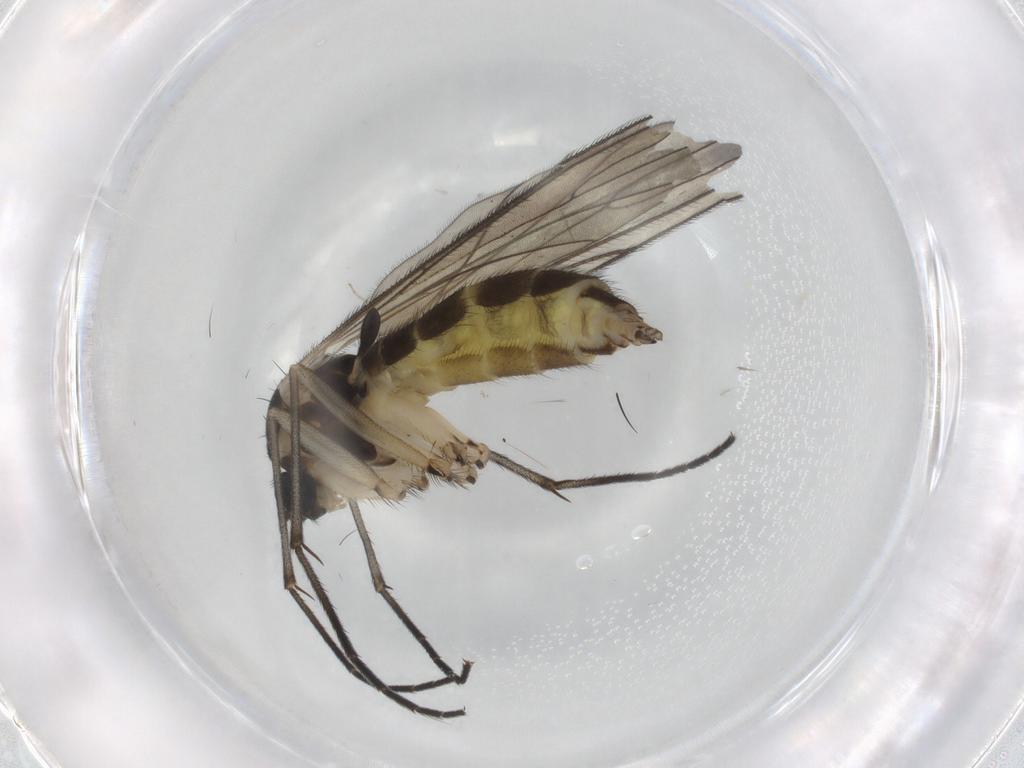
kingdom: Animalia
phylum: Arthropoda
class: Insecta
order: Diptera
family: Sciaridae
